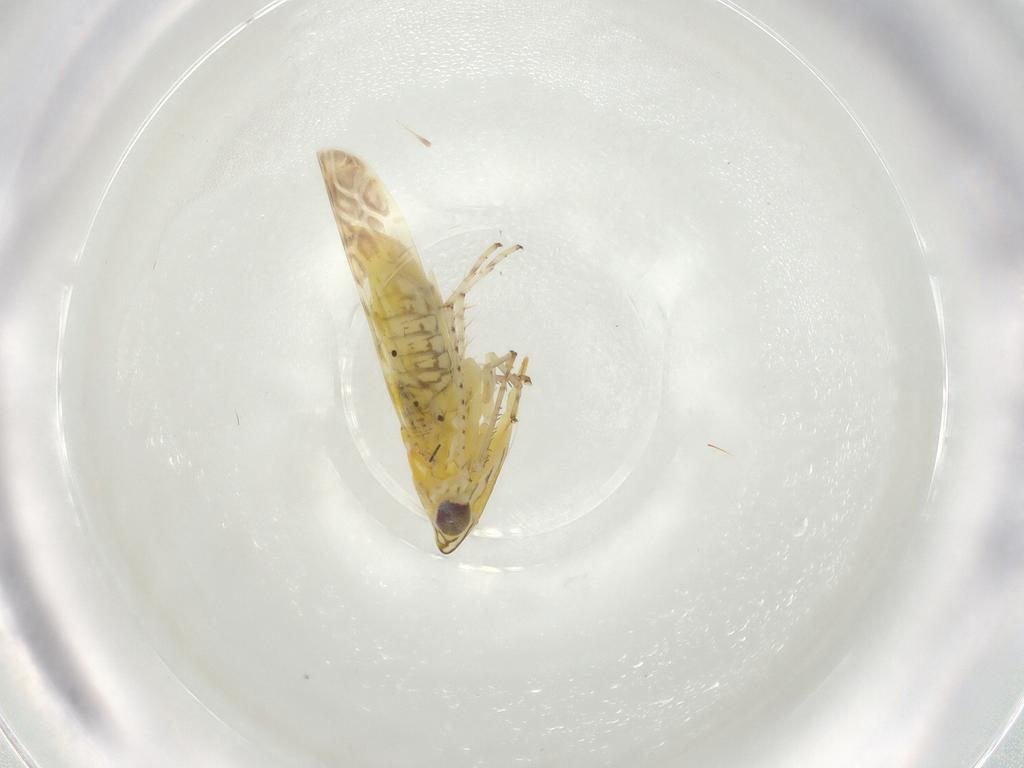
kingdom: Animalia
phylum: Arthropoda
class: Insecta
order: Hemiptera
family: Cicadellidae
